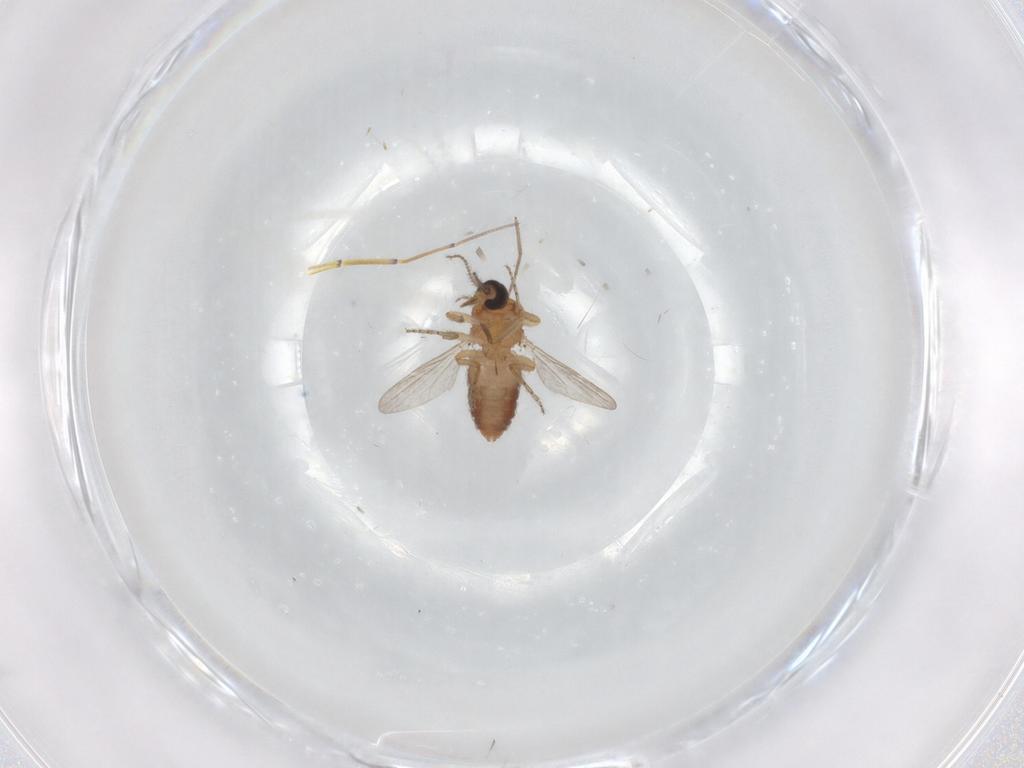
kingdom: Animalia
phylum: Arthropoda
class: Insecta
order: Diptera
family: Ceratopogonidae
